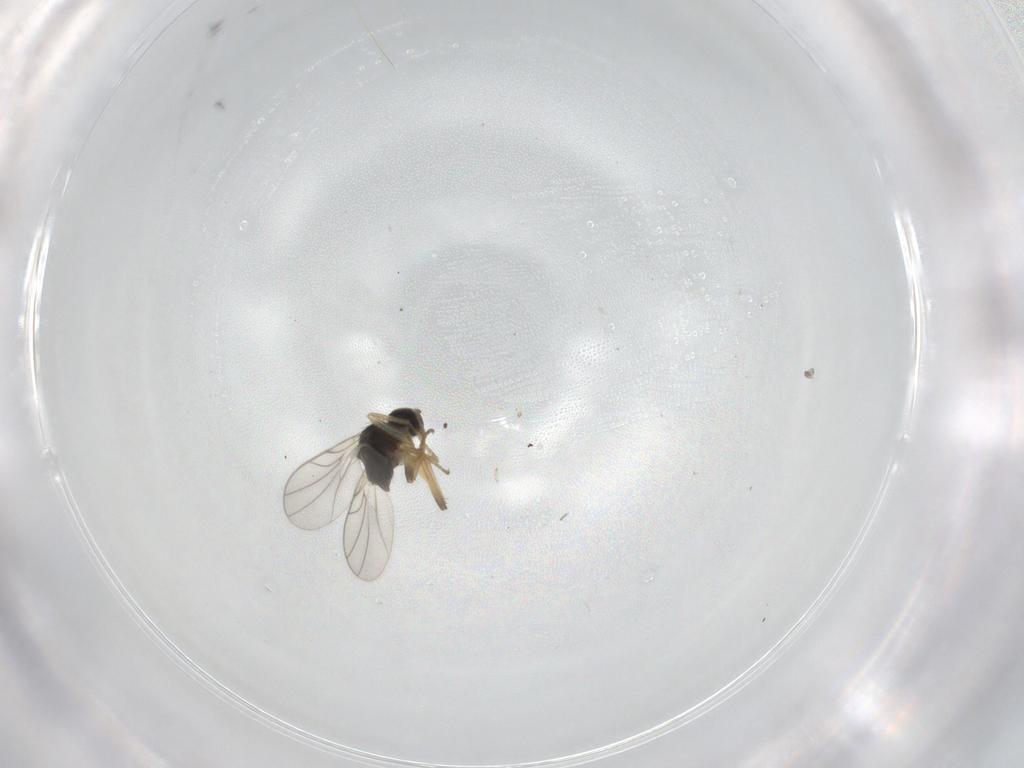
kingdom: Animalia
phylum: Arthropoda
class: Insecta
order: Diptera
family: Hybotidae
